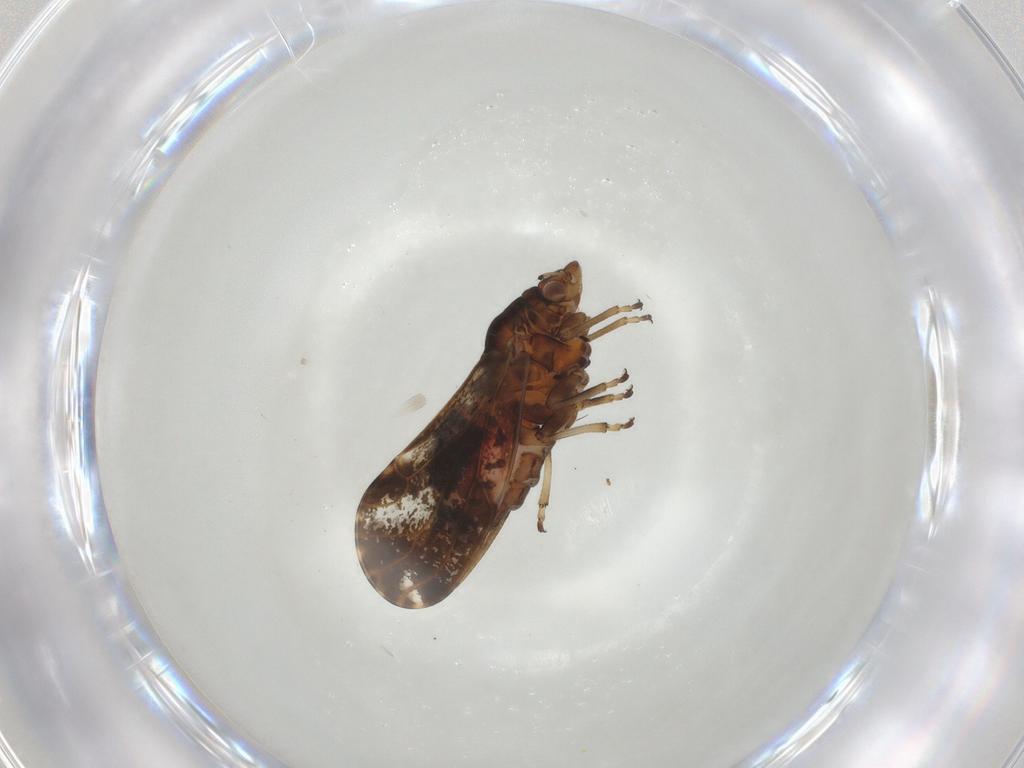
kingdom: Animalia
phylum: Arthropoda
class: Insecta
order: Hemiptera
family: Psylloidea_incertae_sedis
